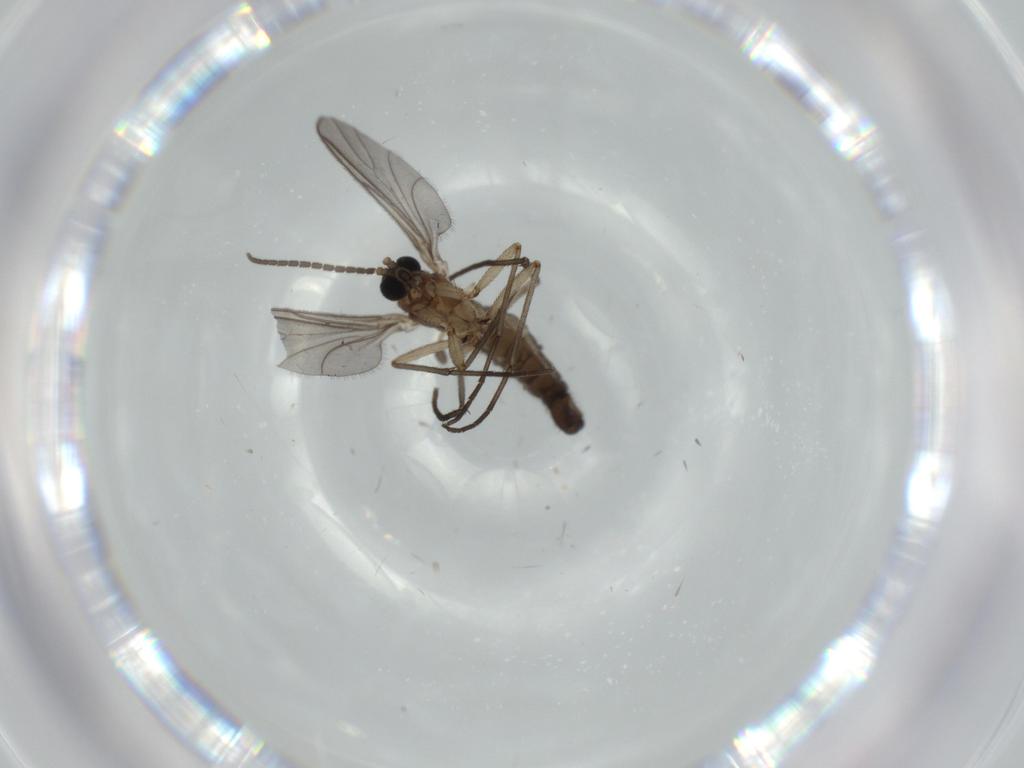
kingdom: Animalia
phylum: Arthropoda
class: Insecta
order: Diptera
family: Sciaridae
